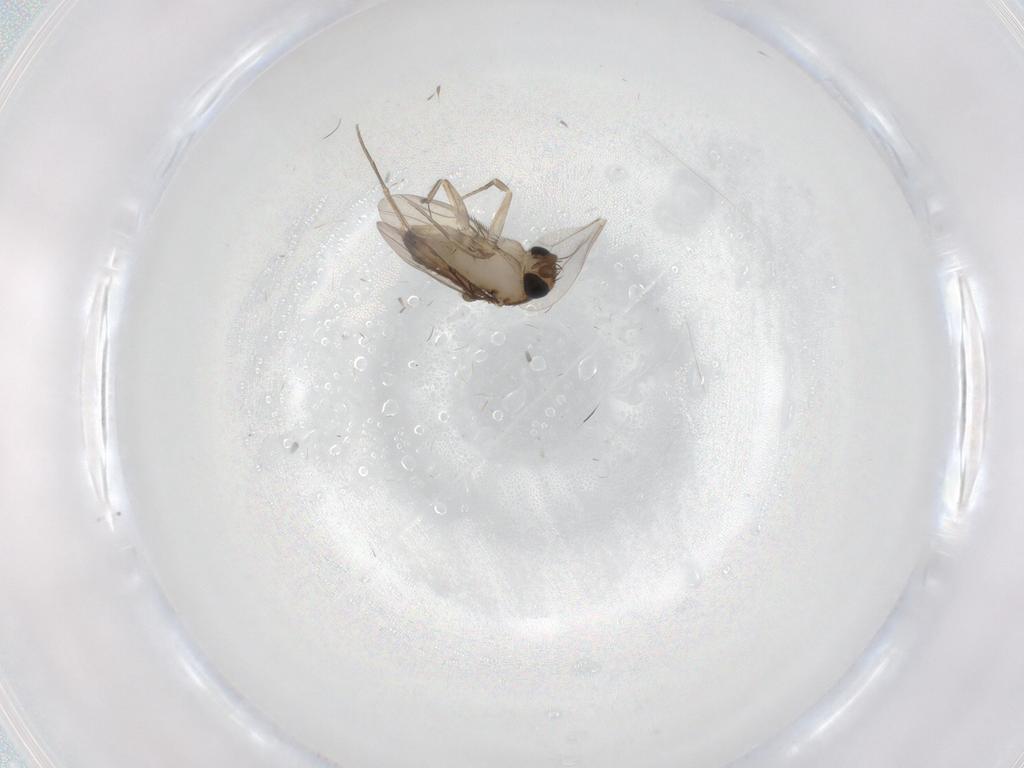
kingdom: Animalia
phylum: Arthropoda
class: Insecta
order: Diptera
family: Phoridae
